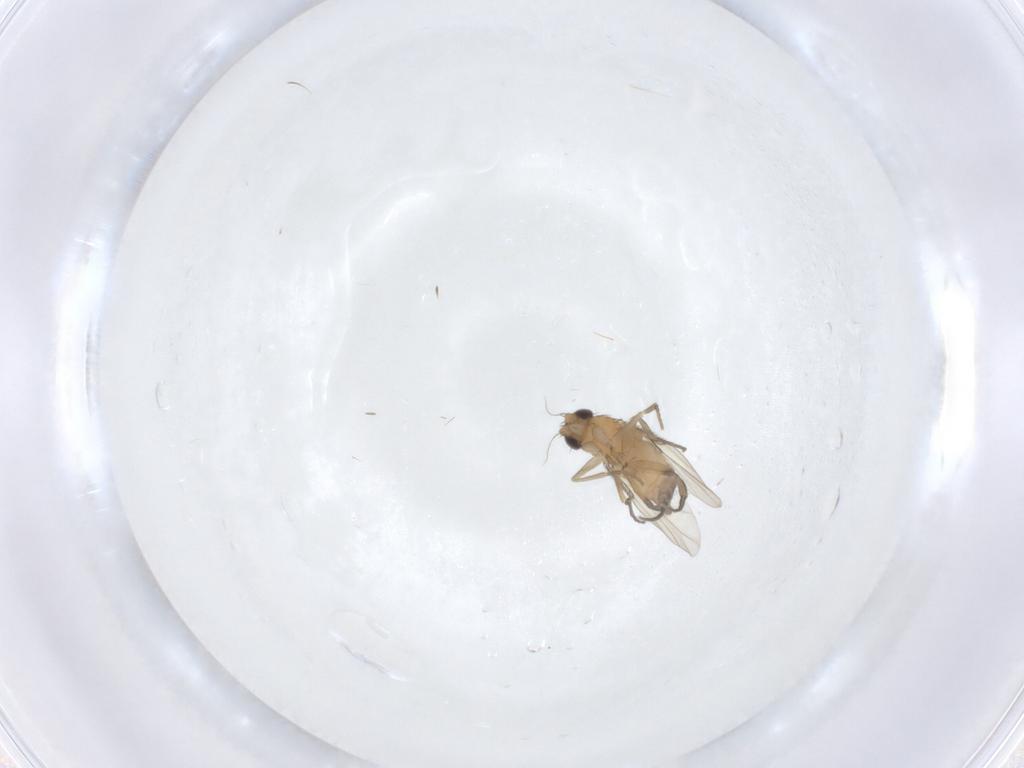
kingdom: Animalia
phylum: Arthropoda
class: Insecta
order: Diptera
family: Phoridae
